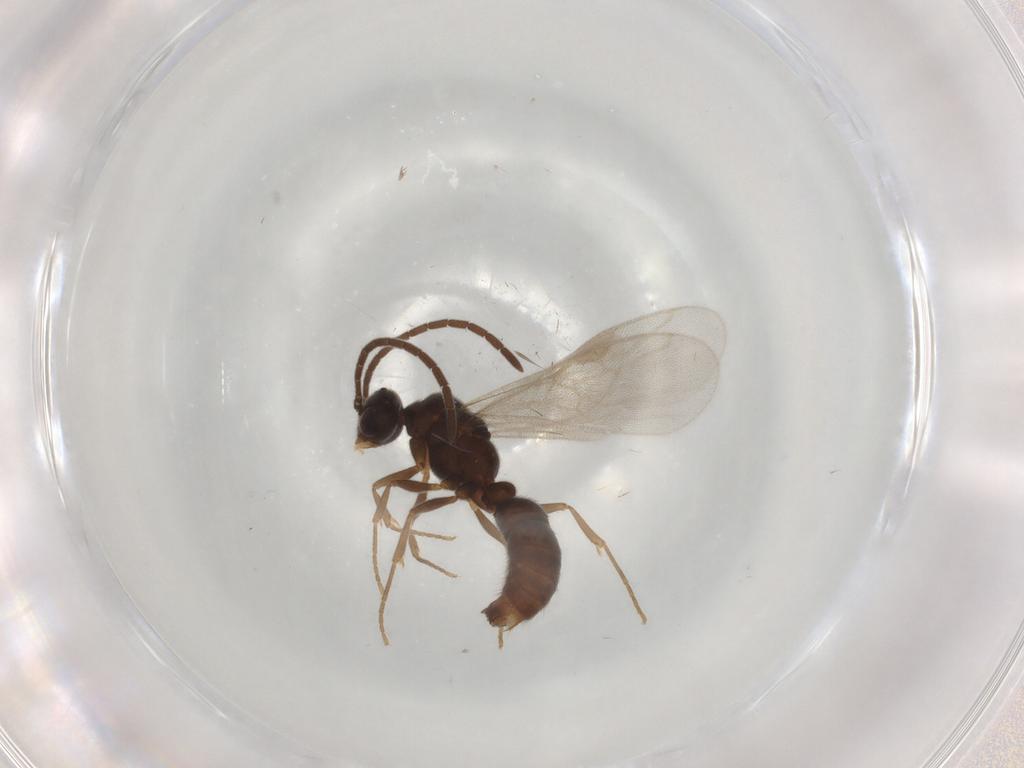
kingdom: Animalia
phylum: Arthropoda
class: Insecta
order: Hymenoptera
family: Formicidae
